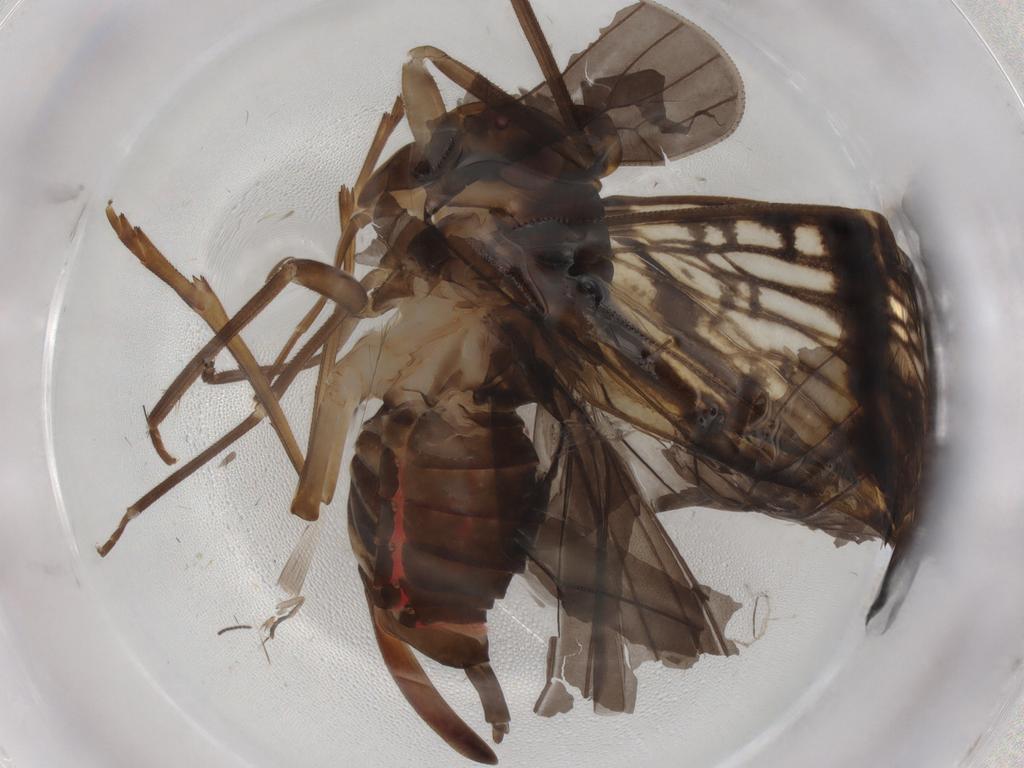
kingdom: Animalia
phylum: Arthropoda
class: Insecta
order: Hemiptera
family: Cixiidae
